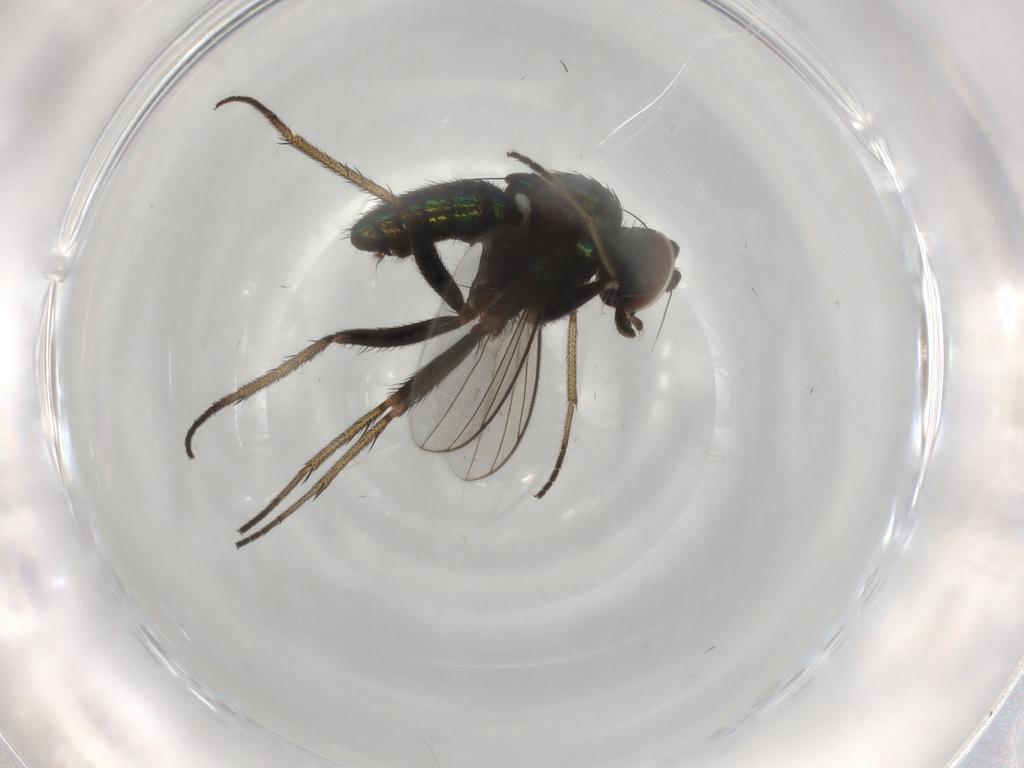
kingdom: Animalia
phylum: Arthropoda
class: Insecta
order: Diptera
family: Dolichopodidae
